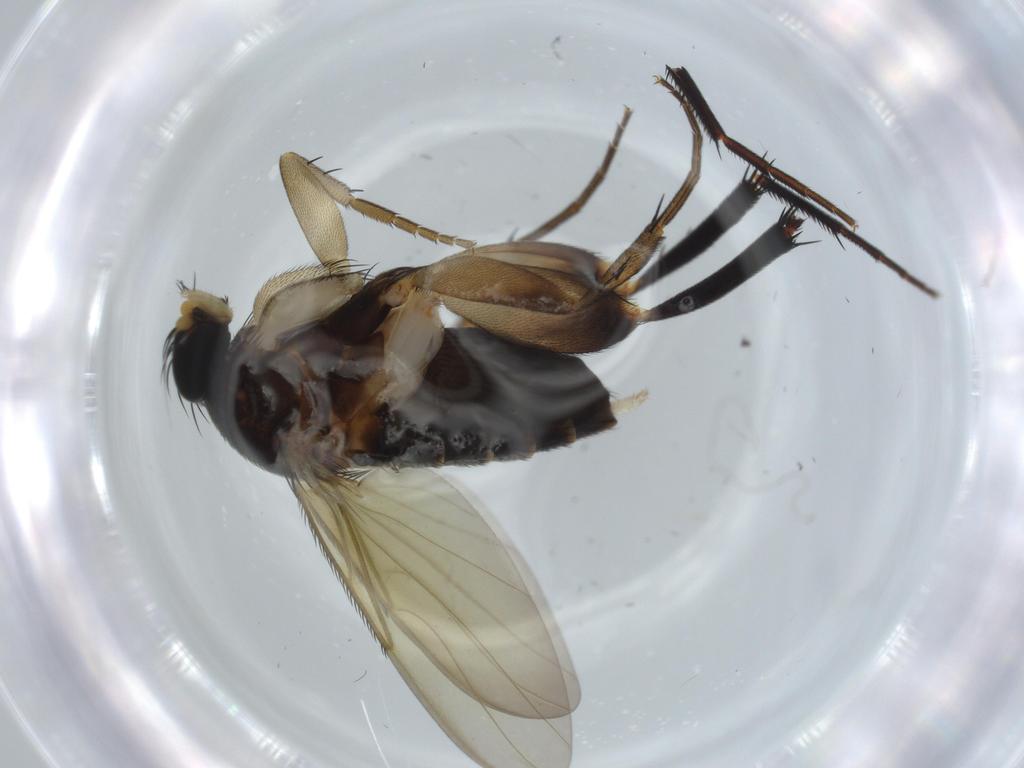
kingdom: Animalia
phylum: Arthropoda
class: Insecta
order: Diptera
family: Phoridae
